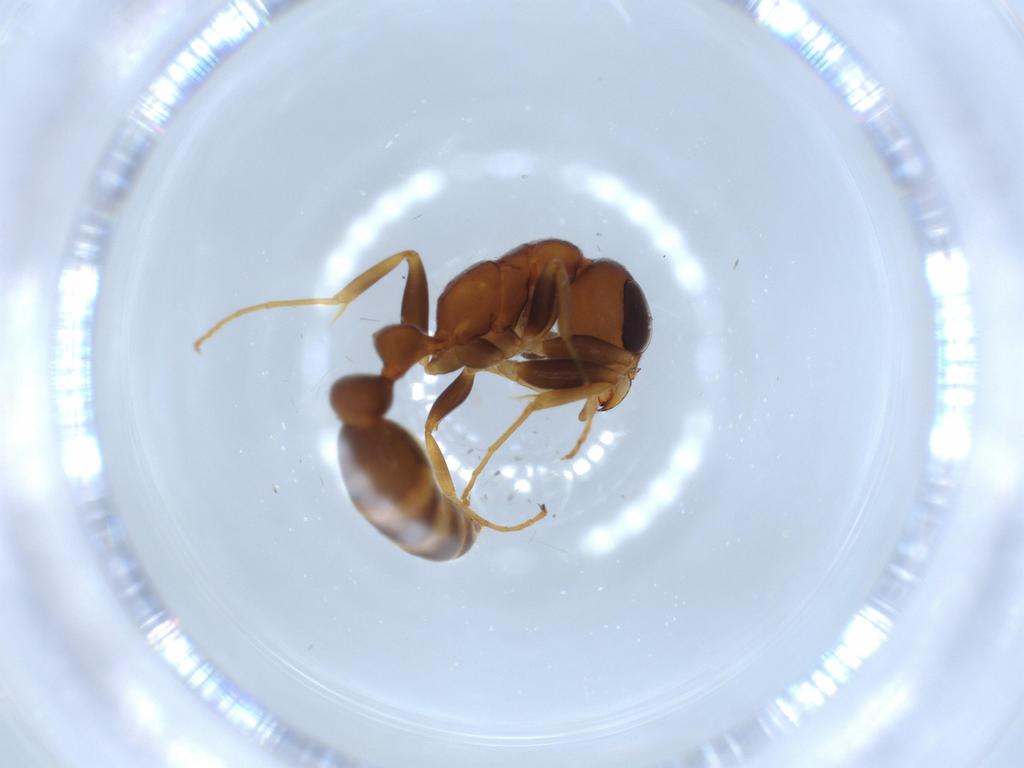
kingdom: Animalia
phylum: Arthropoda
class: Insecta
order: Hymenoptera
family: Formicidae
